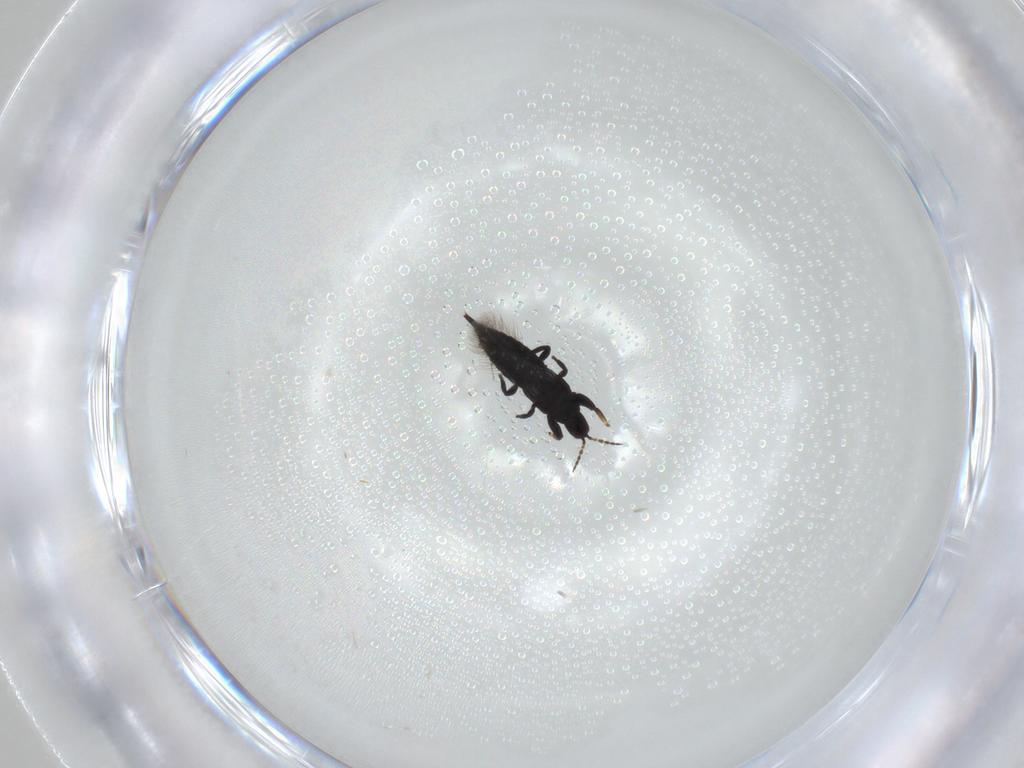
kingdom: Animalia
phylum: Arthropoda
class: Insecta
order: Thysanoptera
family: Phlaeothripidae
